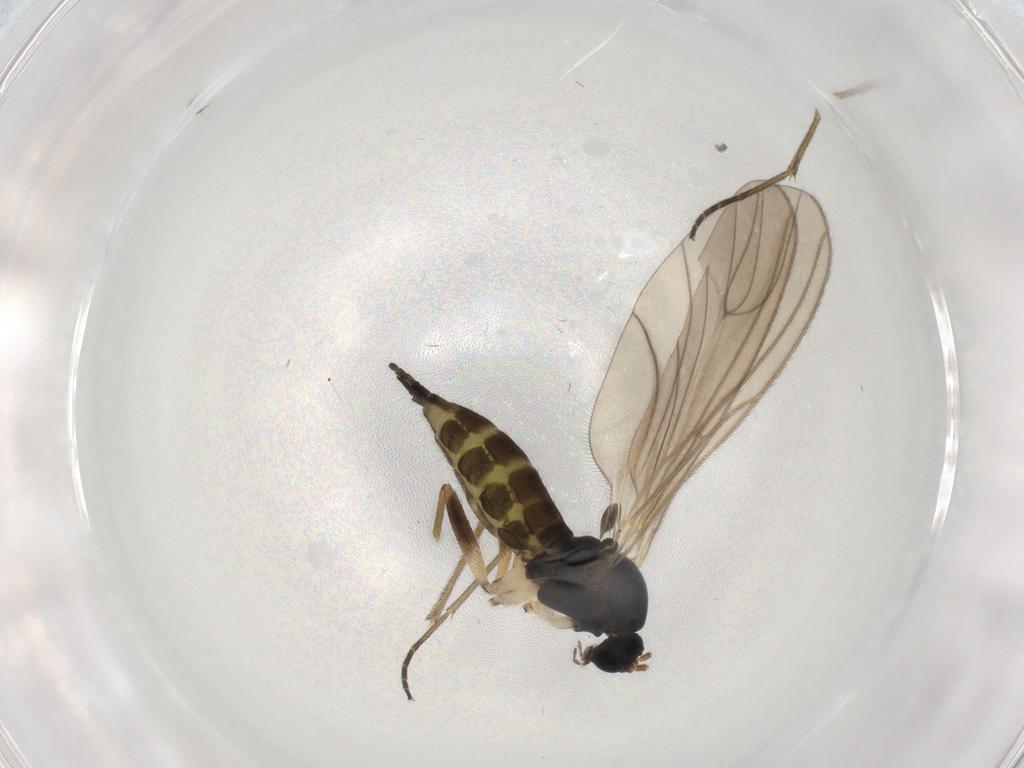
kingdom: Animalia
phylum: Arthropoda
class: Insecta
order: Diptera
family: Sciaridae
